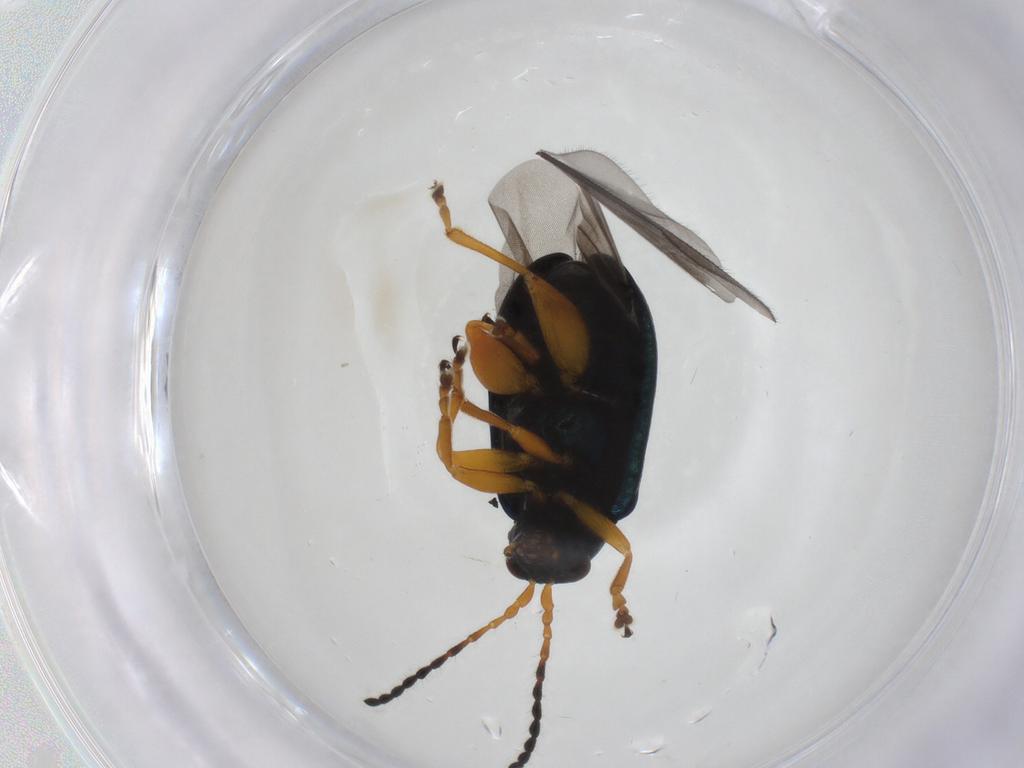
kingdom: Animalia
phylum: Arthropoda
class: Insecta
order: Coleoptera
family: Chrysomelidae
